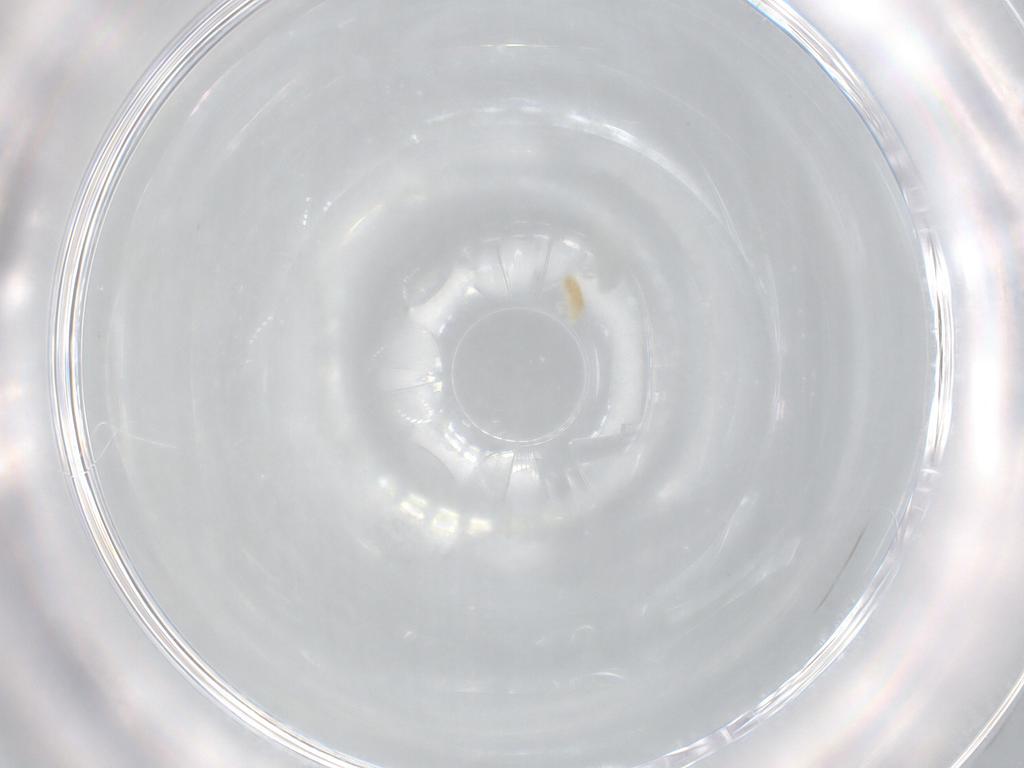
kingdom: Animalia
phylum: Arthropoda
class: Arachnida
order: Trombidiformes
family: Eupodidae
